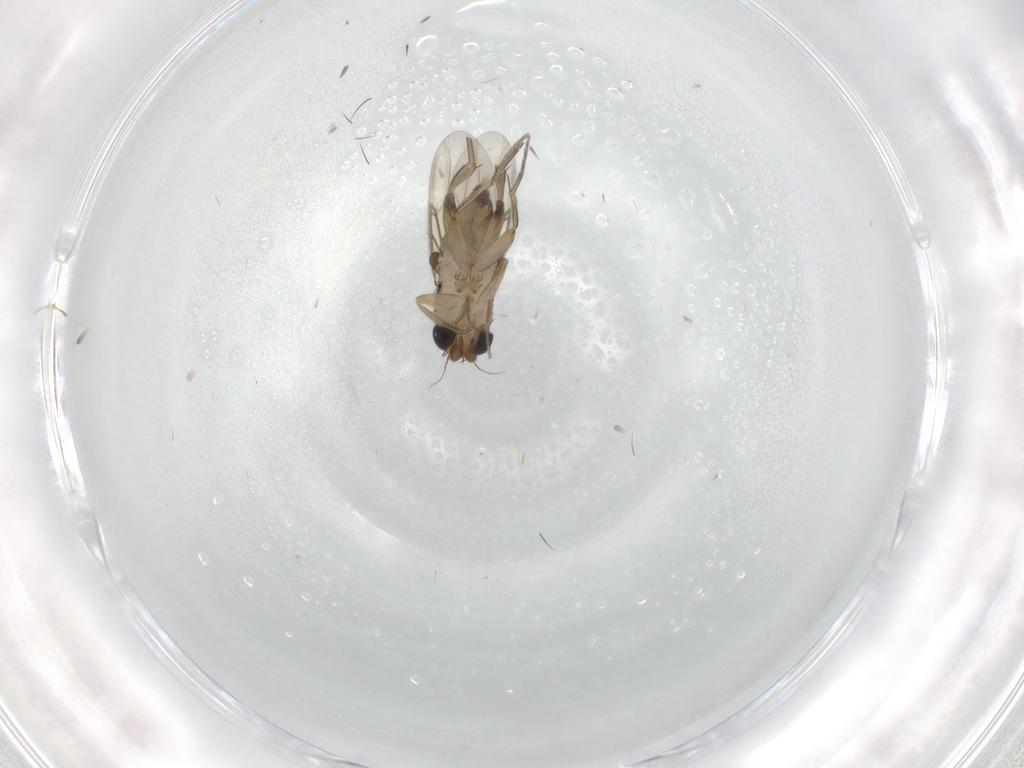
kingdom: Animalia
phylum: Arthropoda
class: Insecta
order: Diptera
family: Phoridae
